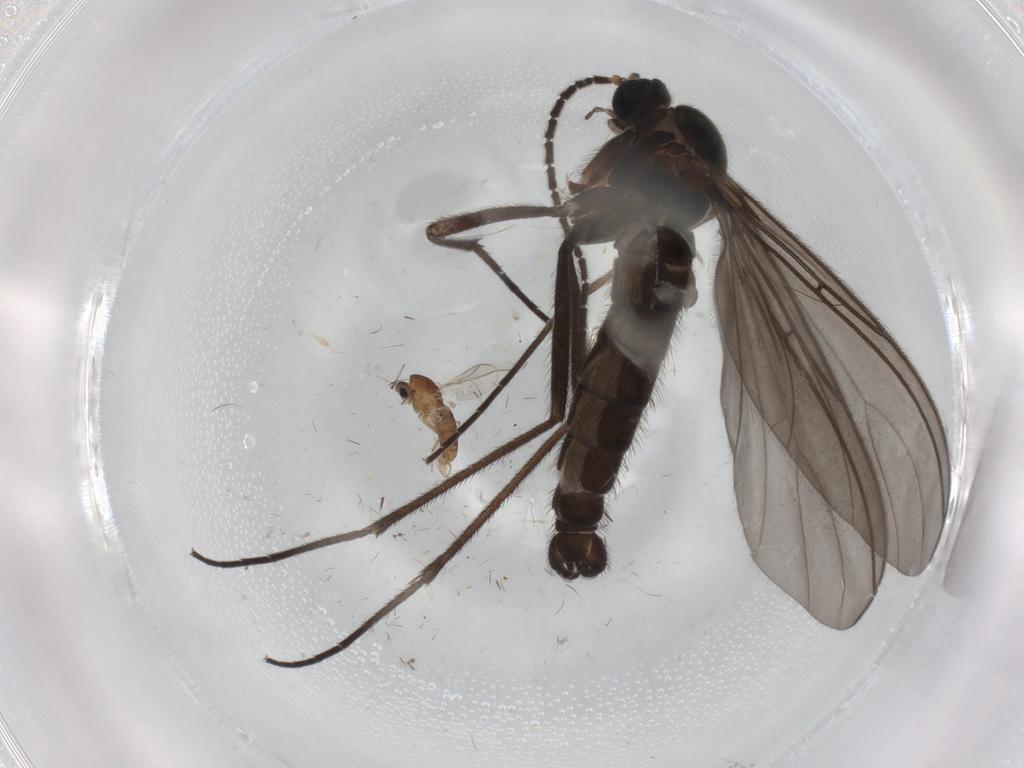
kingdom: Animalia
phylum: Arthropoda
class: Insecta
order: Diptera
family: Sciaridae
